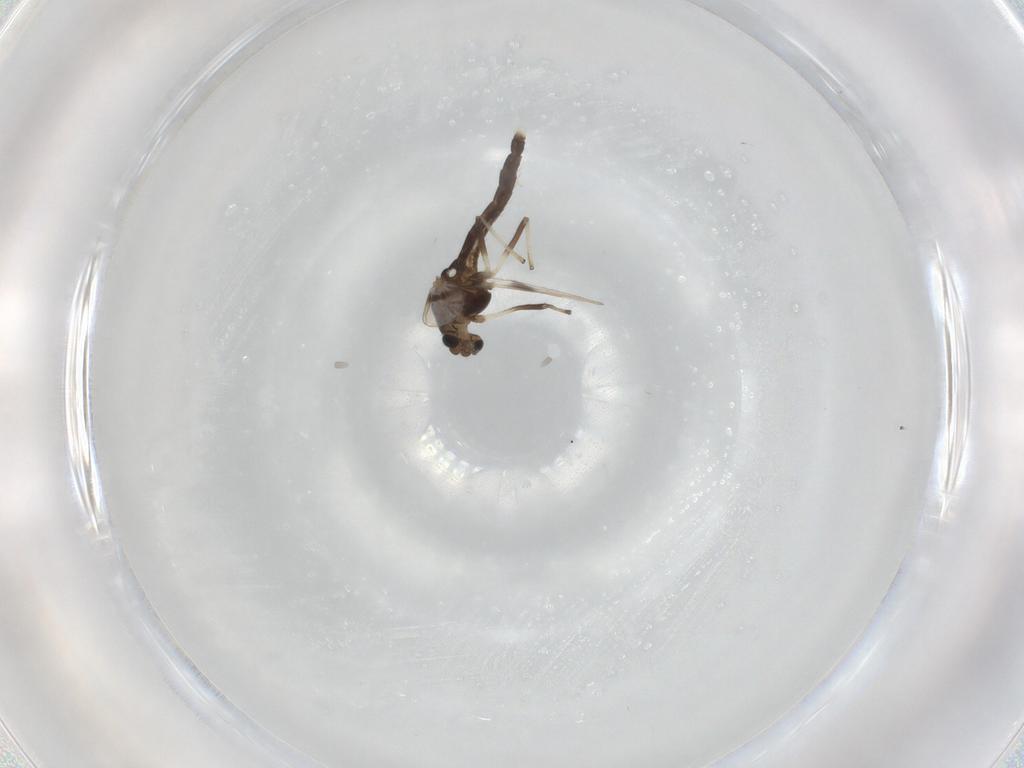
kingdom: Animalia
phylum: Arthropoda
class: Insecta
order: Diptera
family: Chironomidae
